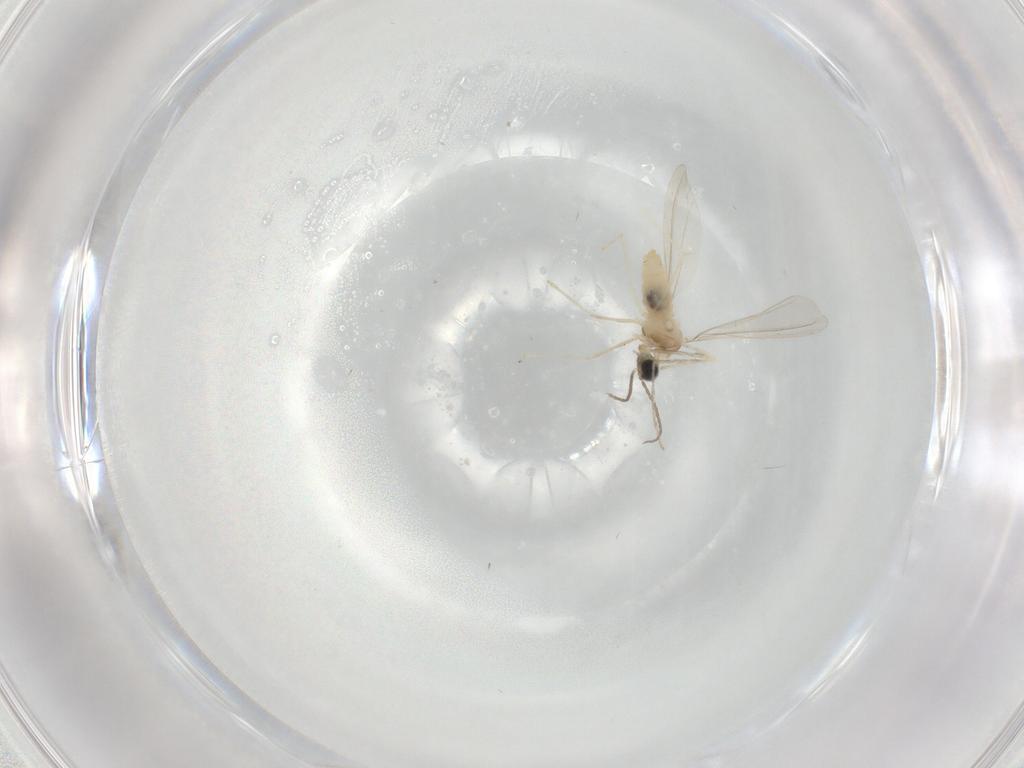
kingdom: Animalia
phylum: Arthropoda
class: Insecta
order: Diptera
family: Cecidomyiidae
